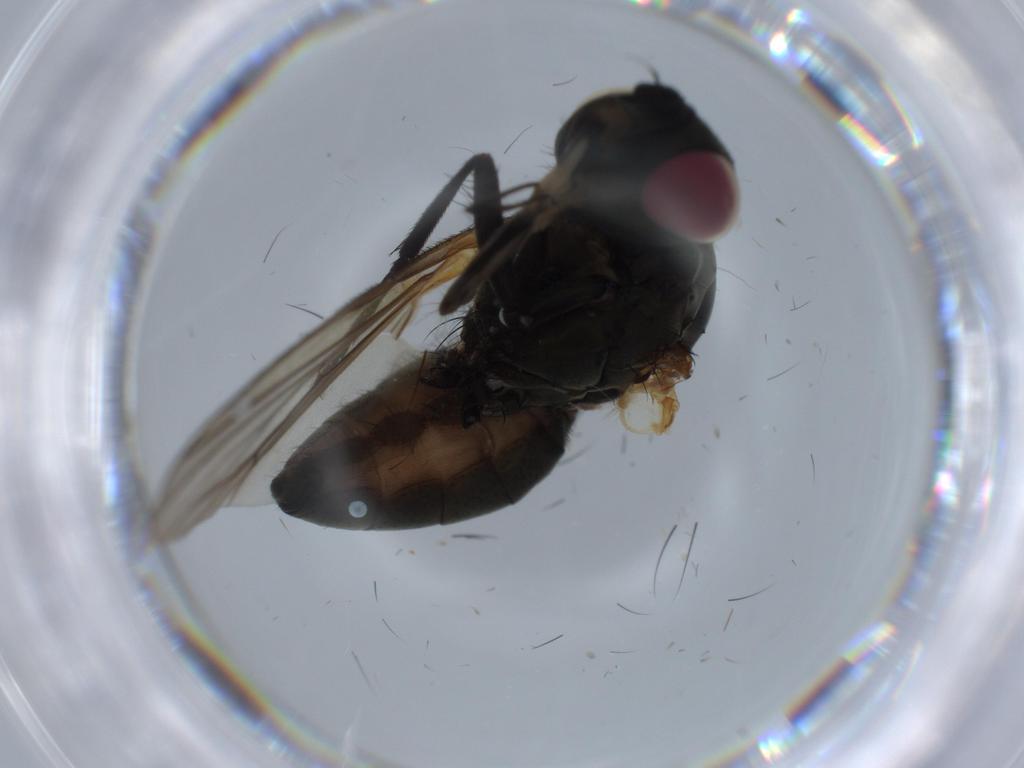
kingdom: Animalia
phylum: Arthropoda
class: Insecta
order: Diptera
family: Anthomyiidae
